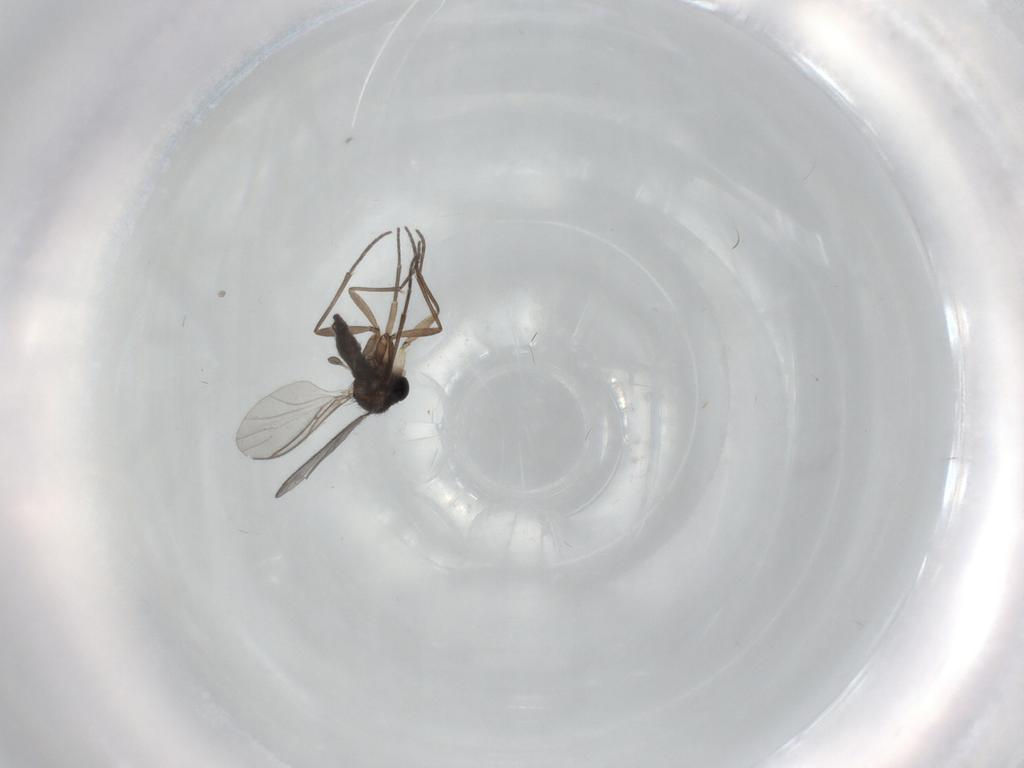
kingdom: Animalia
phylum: Arthropoda
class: Insecta
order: Diptera
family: Sciaridae
